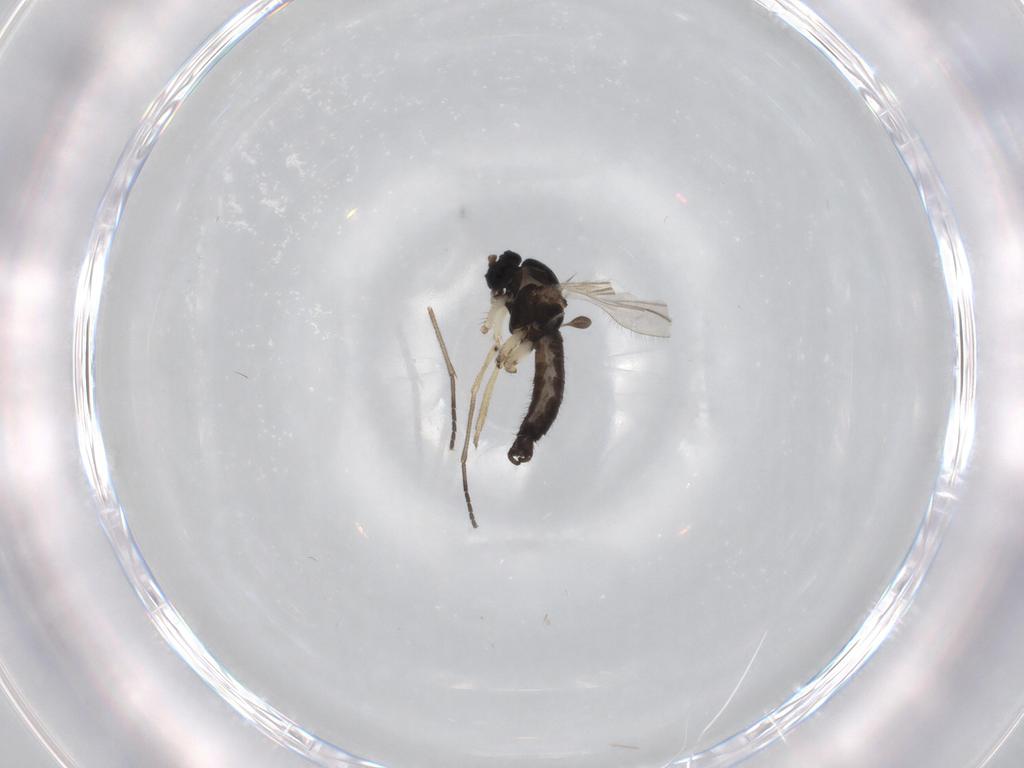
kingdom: Animalia
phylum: Arthropoda
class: Insecta
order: Diptera
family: Sciaridae
